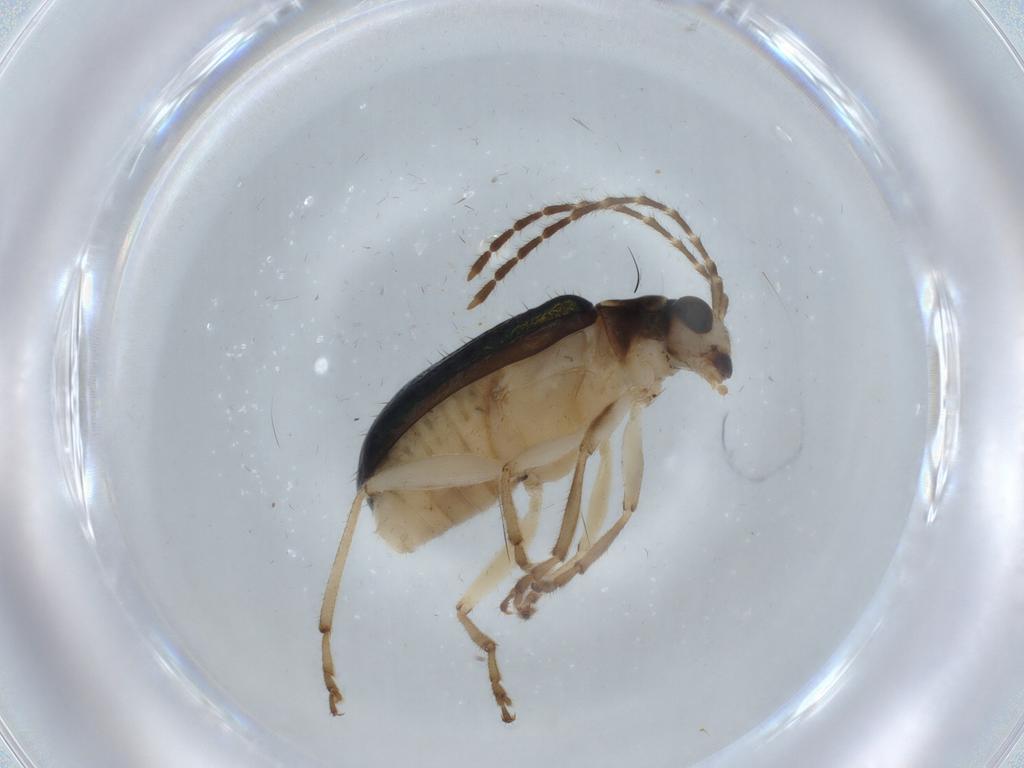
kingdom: Animalia
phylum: Arthropoda
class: Insecta
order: Coleoptera
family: Chrysomelidae
